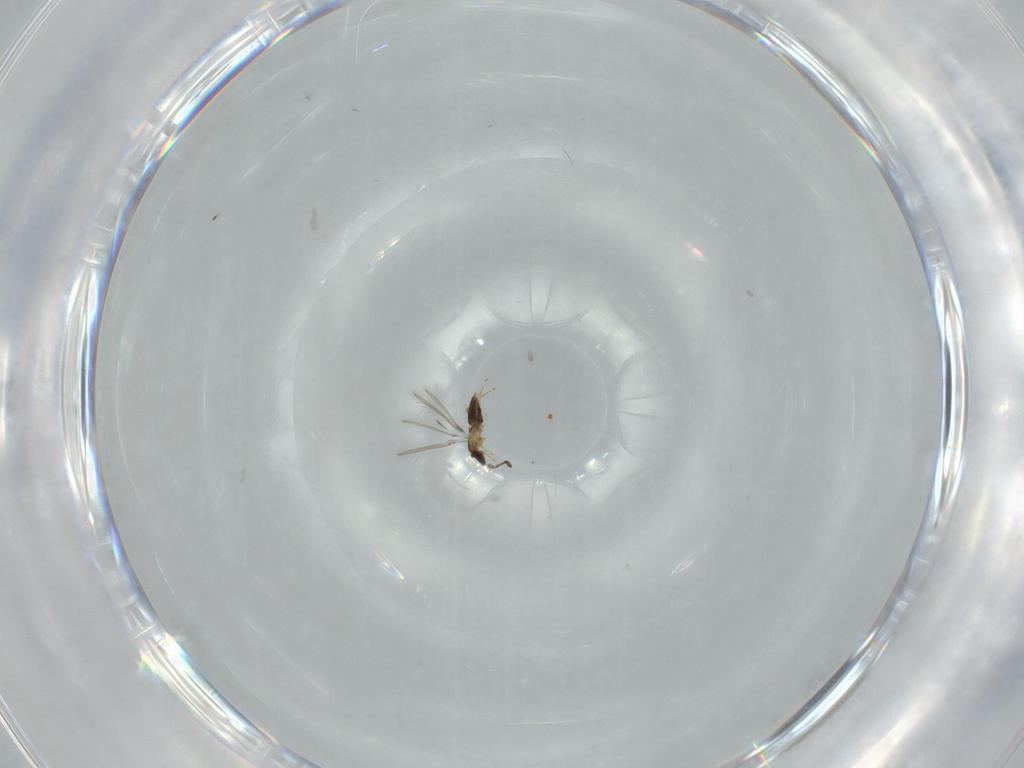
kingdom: Animalia
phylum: Arthropoda
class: Insecta
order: Hymenoptera
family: Mymaridae
